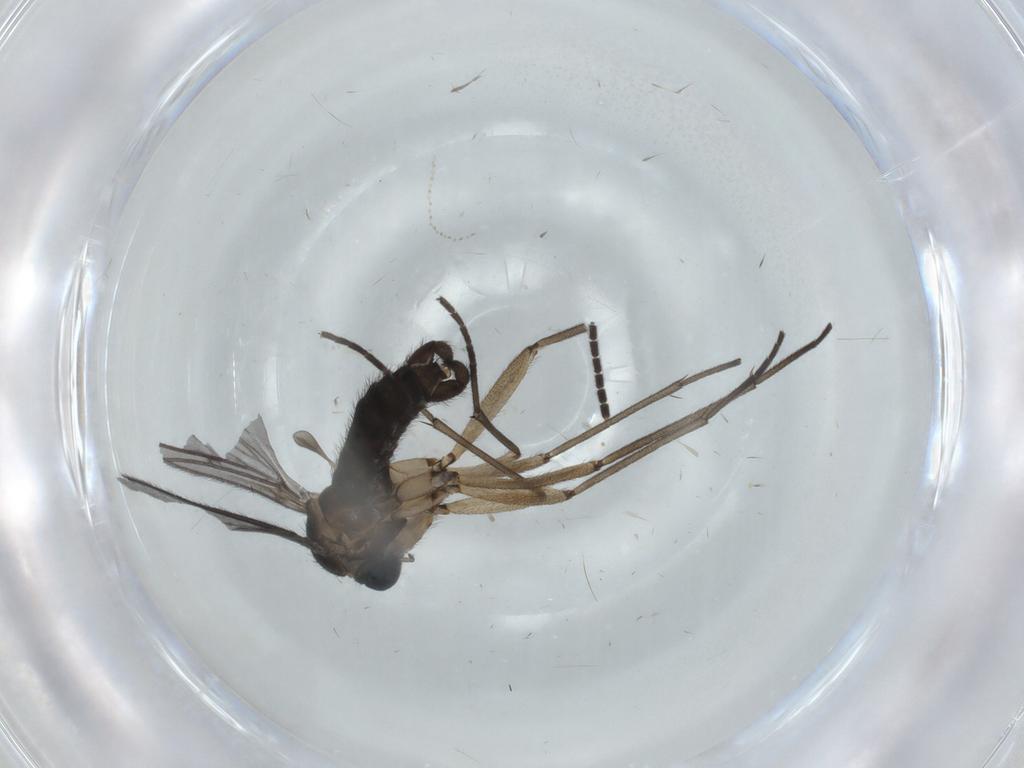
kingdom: Animalia
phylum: Arthropoda
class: Insecta
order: Diptera
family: Sciaridae
